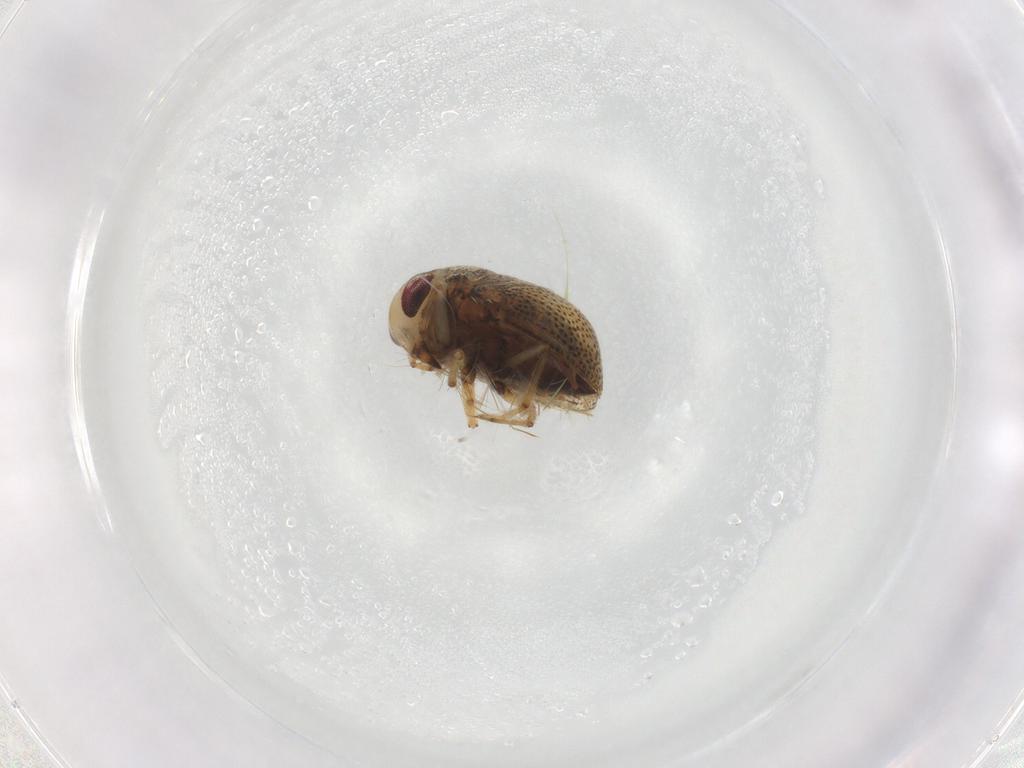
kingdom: Animalia
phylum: Arthropoda
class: Insecta
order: Hemiptera
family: Pleidae
